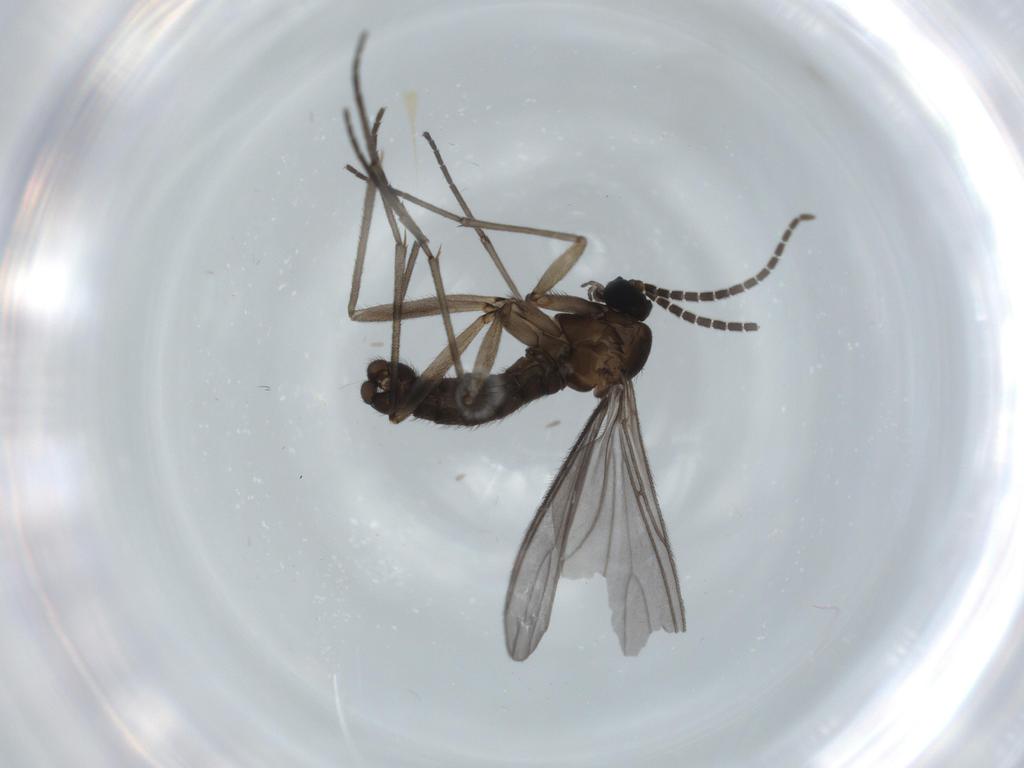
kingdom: Animalia
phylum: Arthropoda
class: Insecta
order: Diptera
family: Sciaridae
